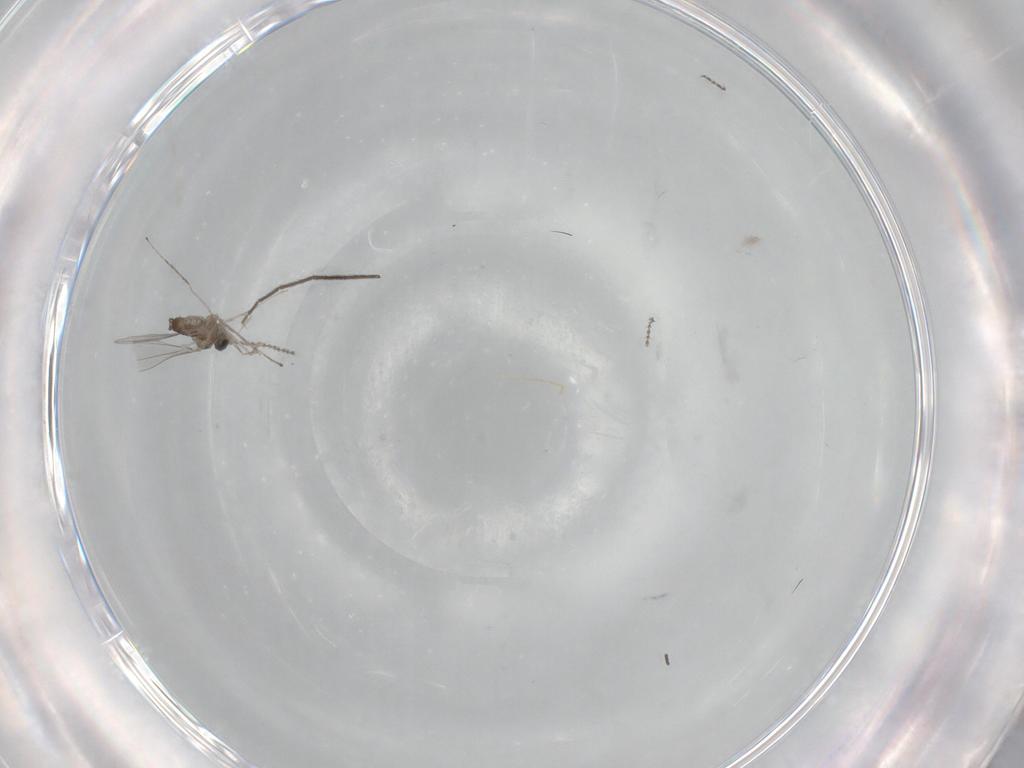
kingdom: Animalia
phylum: Arthropoda
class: Insecta
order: Diptera
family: Cecidomyiidae
